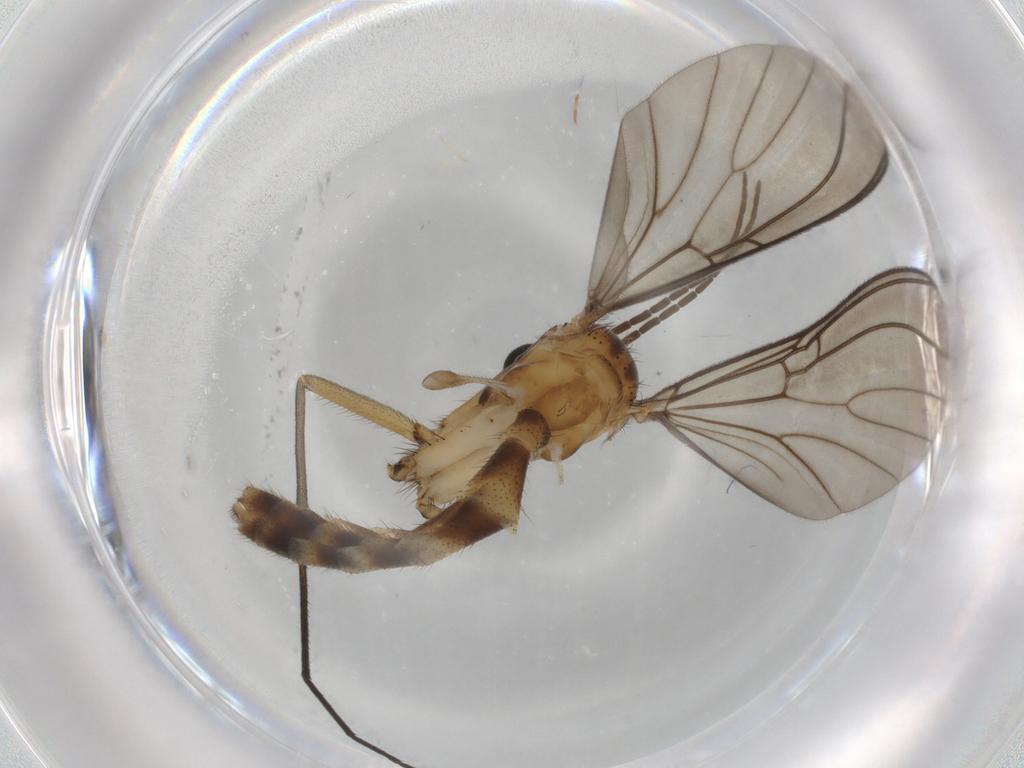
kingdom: Animalia
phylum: Arthropoda
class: Insecta
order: Diptera
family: Mycetophilidae
